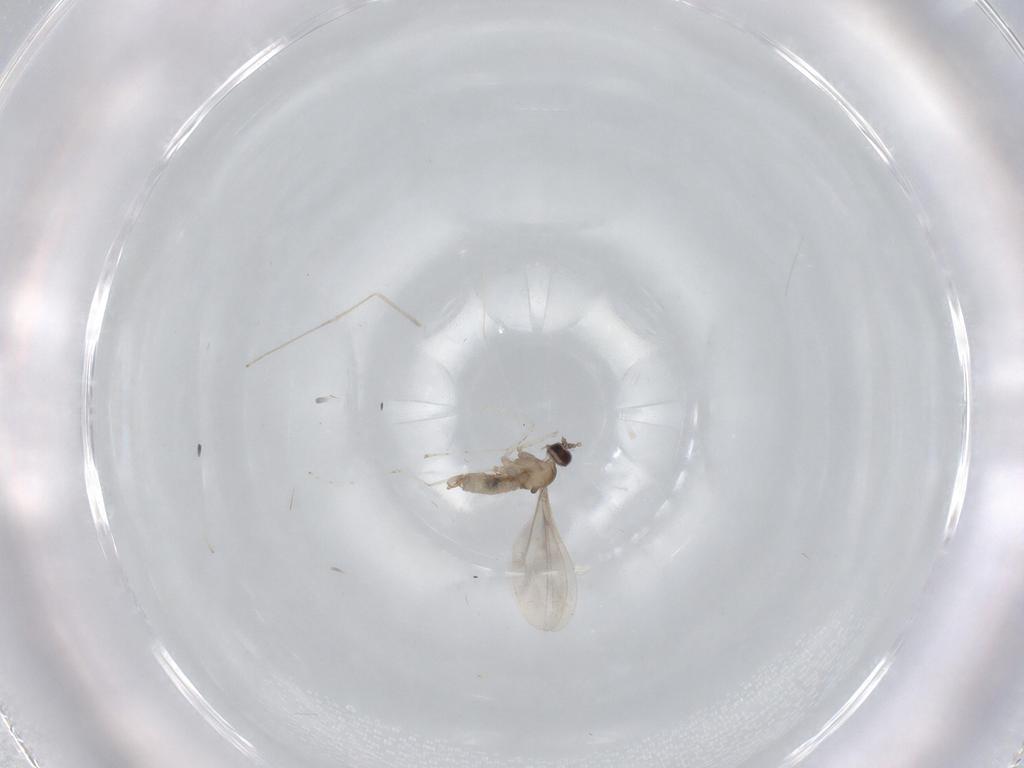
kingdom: Animalia
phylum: Arthropoda
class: Insecta
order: Diptera
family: Cecidomyiidae
